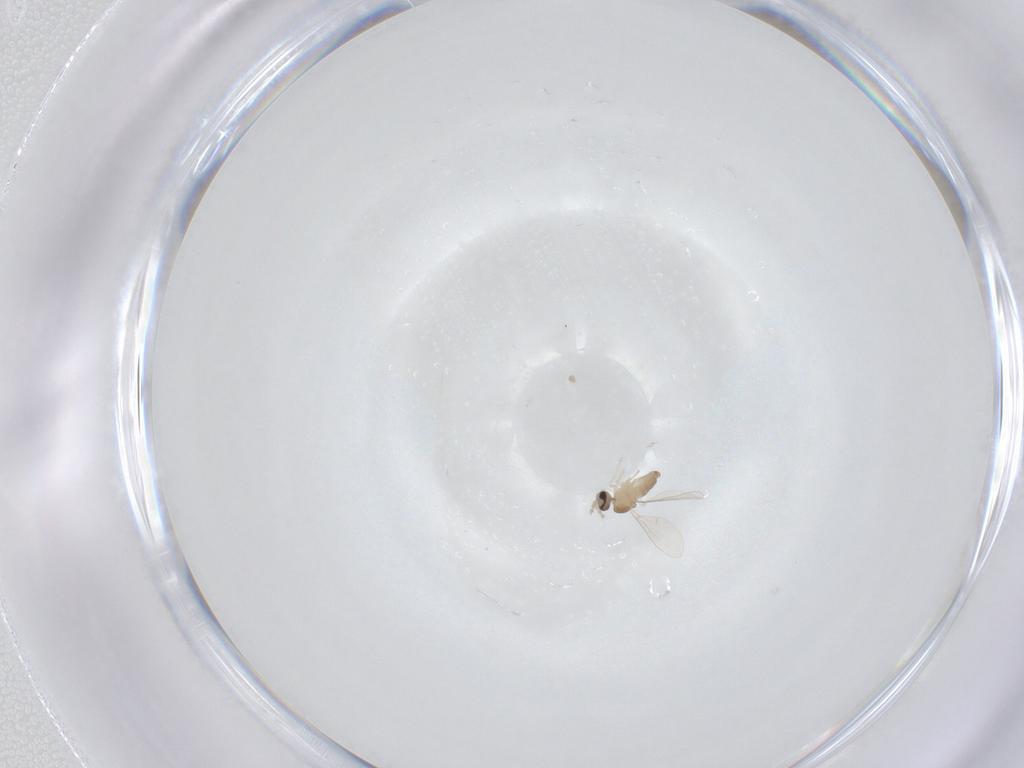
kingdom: Animalia
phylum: Arthropoda
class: Insecta
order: Diptera
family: Cecidomyiidae
